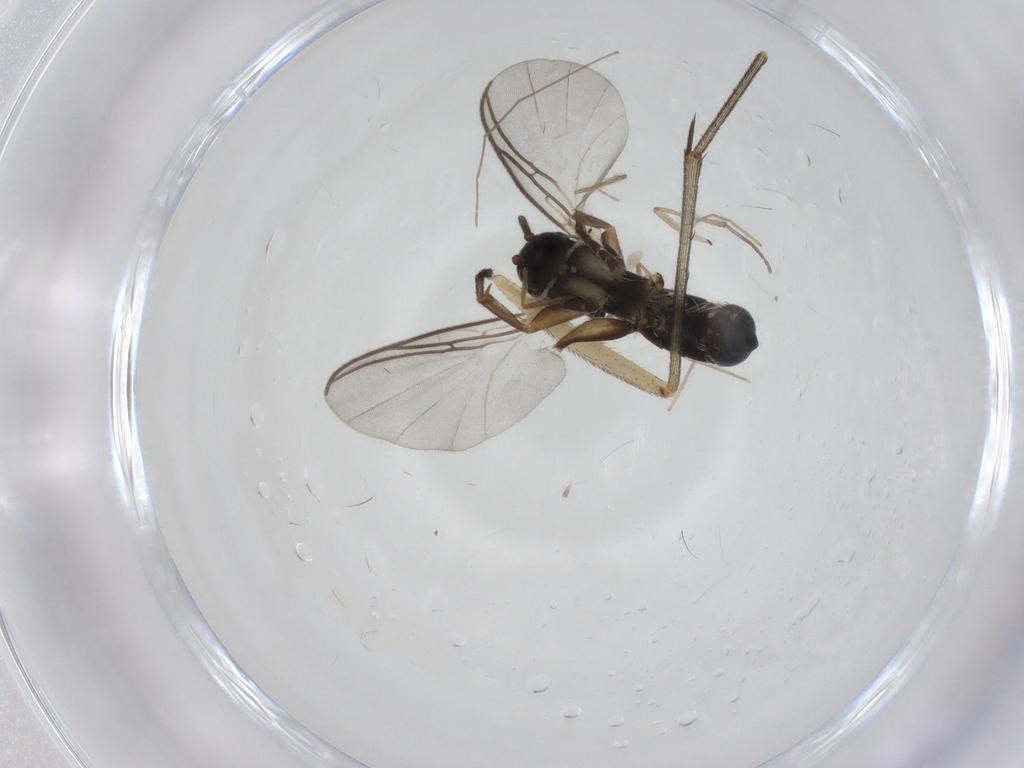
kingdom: Animalia
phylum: Arthropoda
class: Insecta
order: Diptera
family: Mycetophilidae
